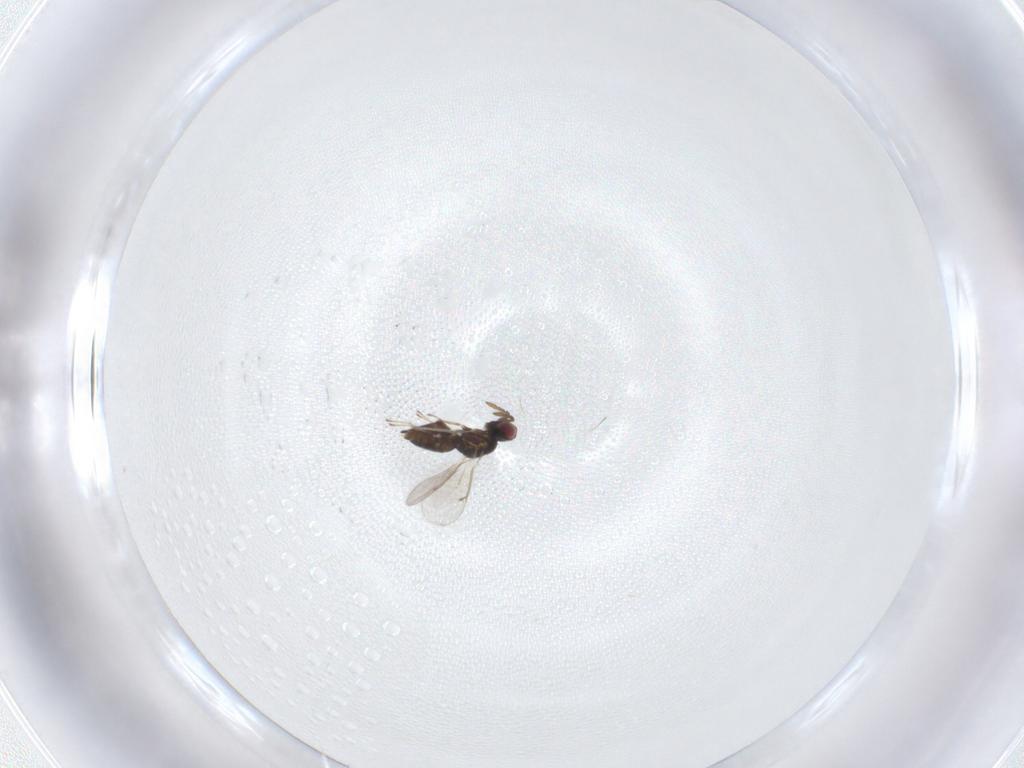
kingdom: Animalia
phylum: Arthropoda
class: Insecta
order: Hymenoptera
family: Eulophidae
